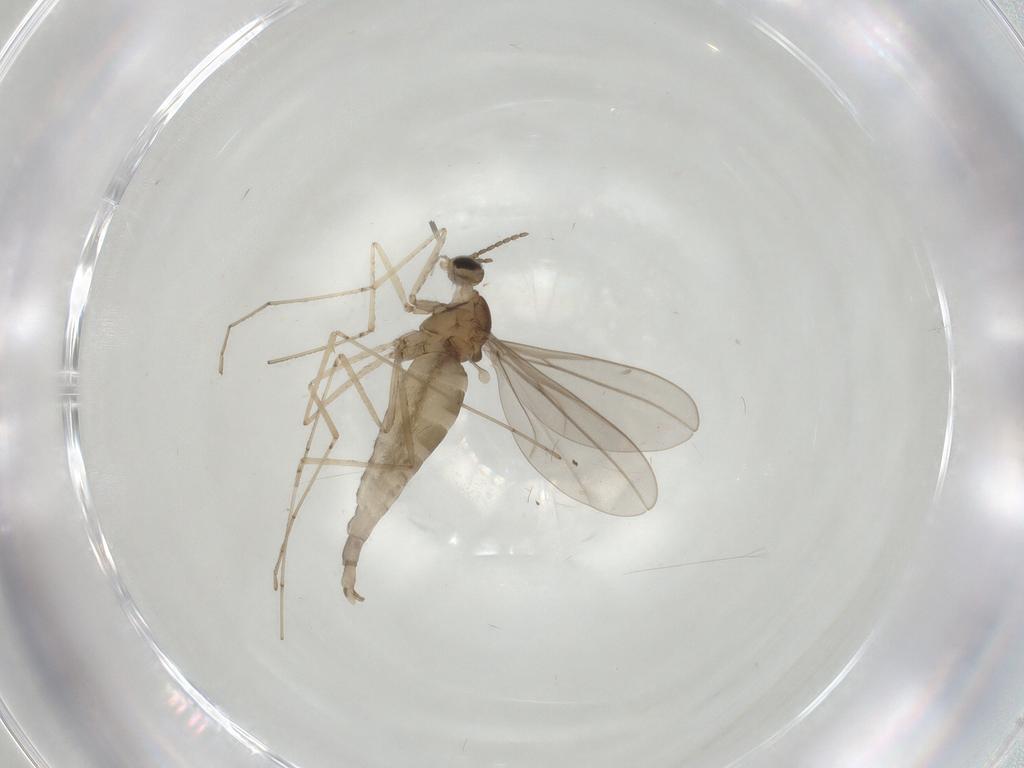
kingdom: Animalia
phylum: Arthropoda
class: Insecta
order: Diptera
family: Cecidomyiidae
